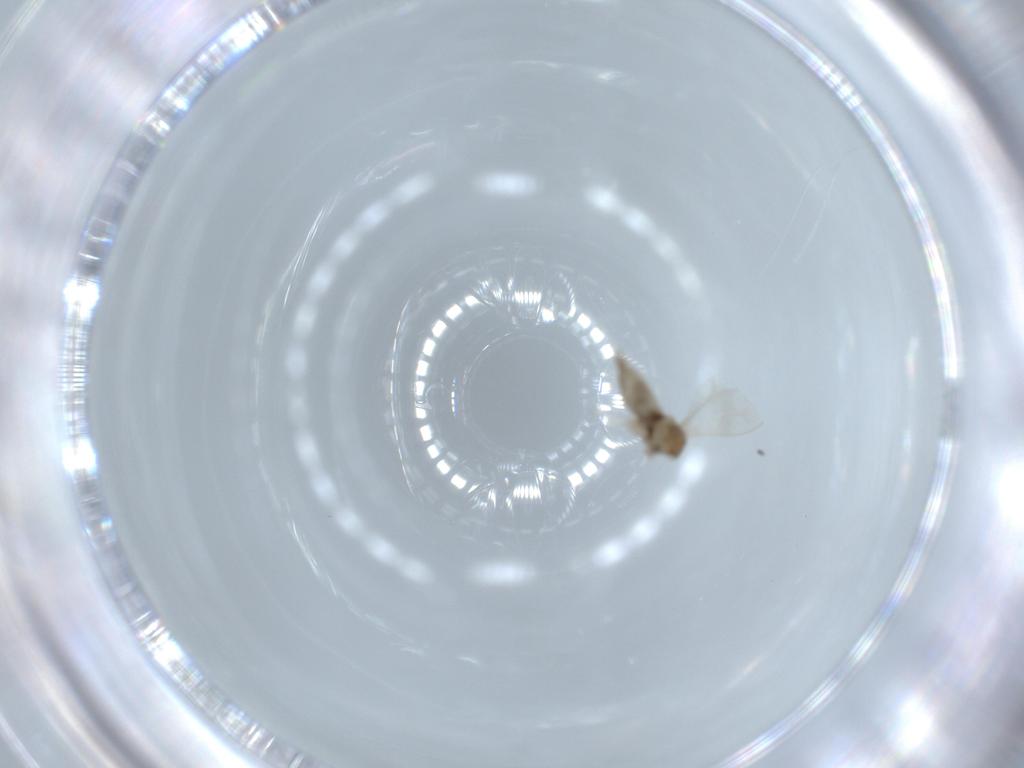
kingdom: Animalia
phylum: Arthropoda
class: Insecta
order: Diptera
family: Cecidomyiidae
